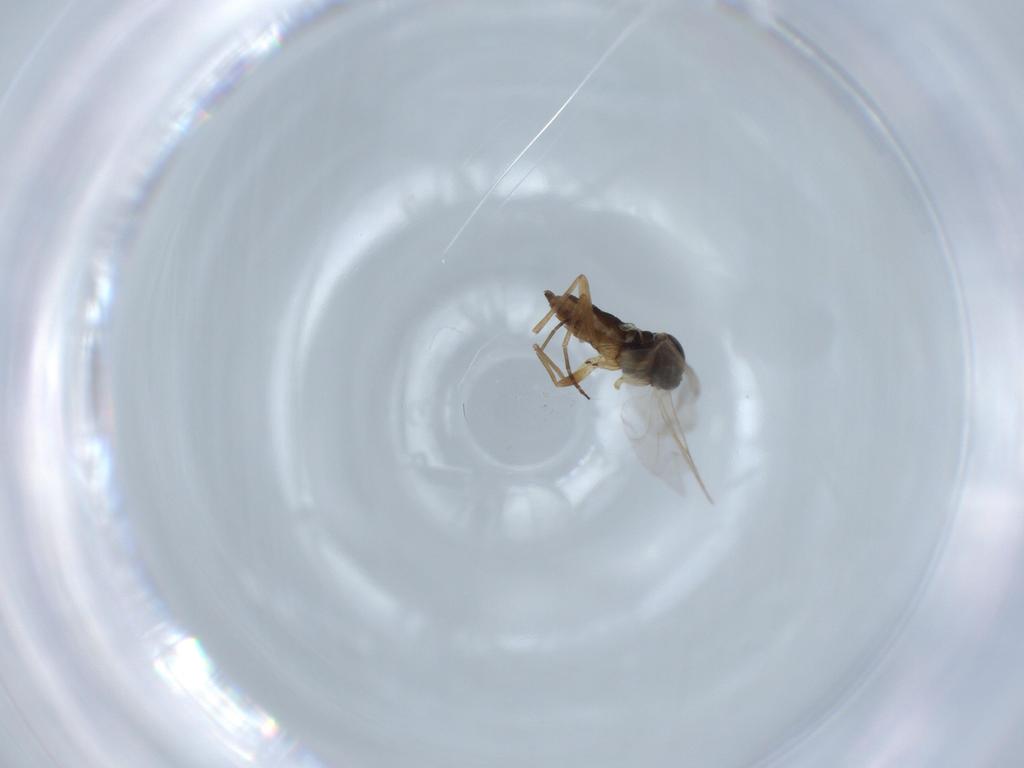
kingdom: Animalia
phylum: Arthropoda
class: Insecta
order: Diptera
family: Sciaridae
